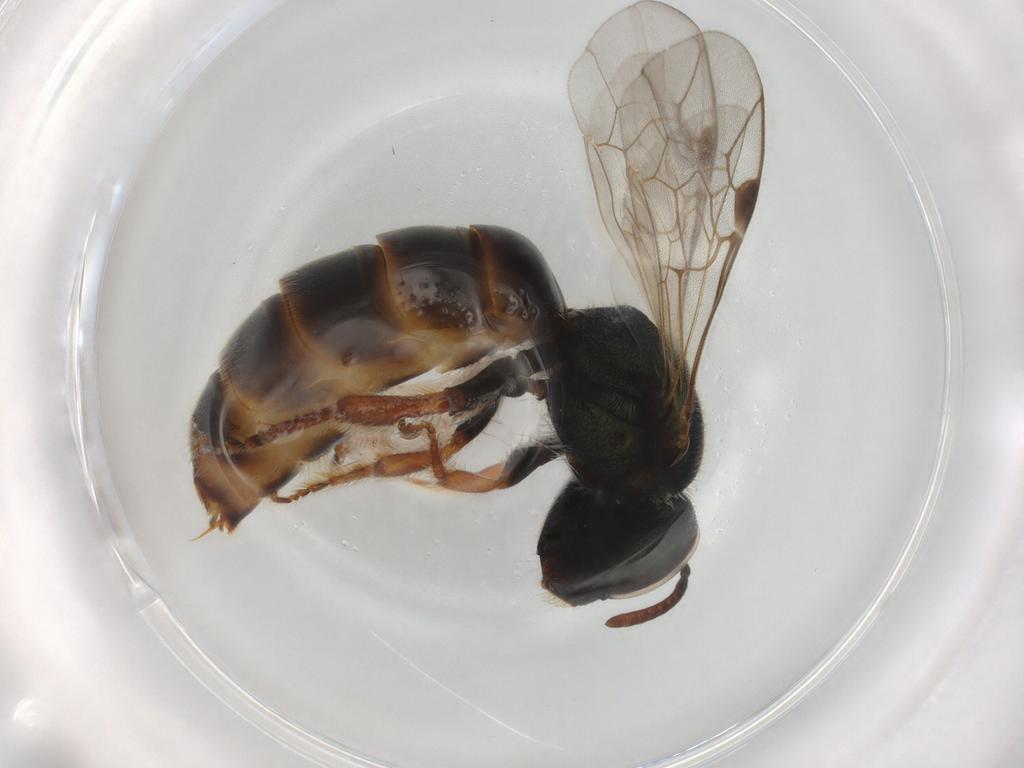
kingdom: Animalia
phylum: Arthropoda
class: Insecta
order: Hymenoptera
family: Halictidae
